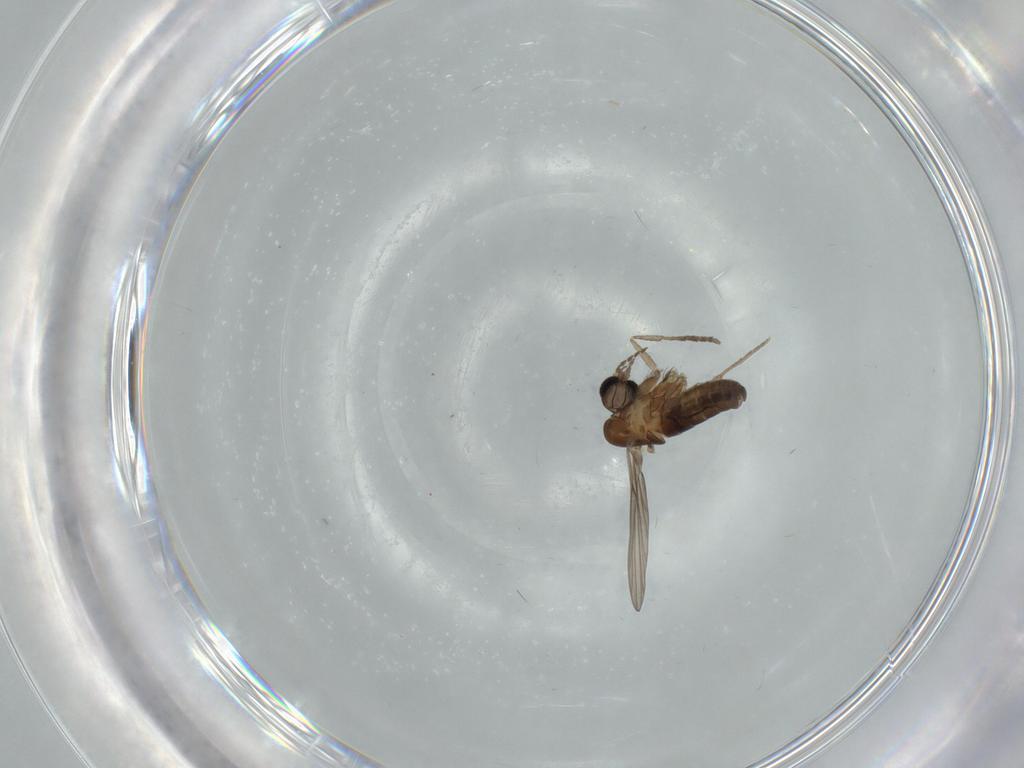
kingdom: Animalia
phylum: Arthropoda
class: Insecta
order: Diptera
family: Psychodidae
